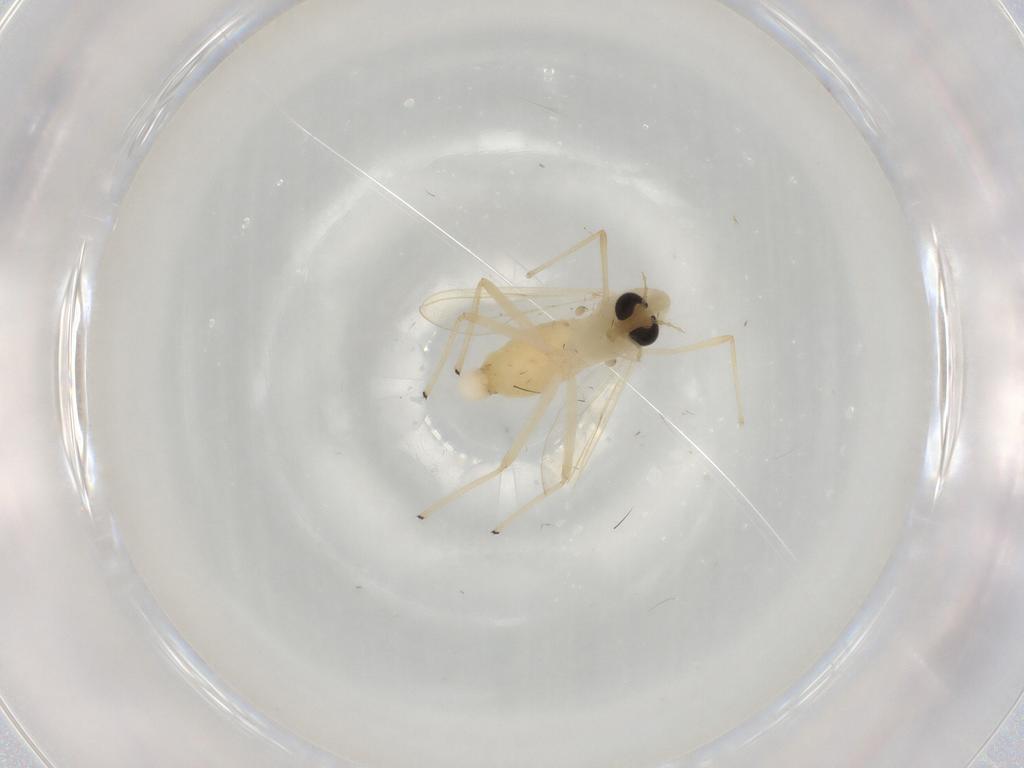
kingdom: Animalia
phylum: Arthropoda
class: Insecta
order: Diptera
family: Chironomidae
